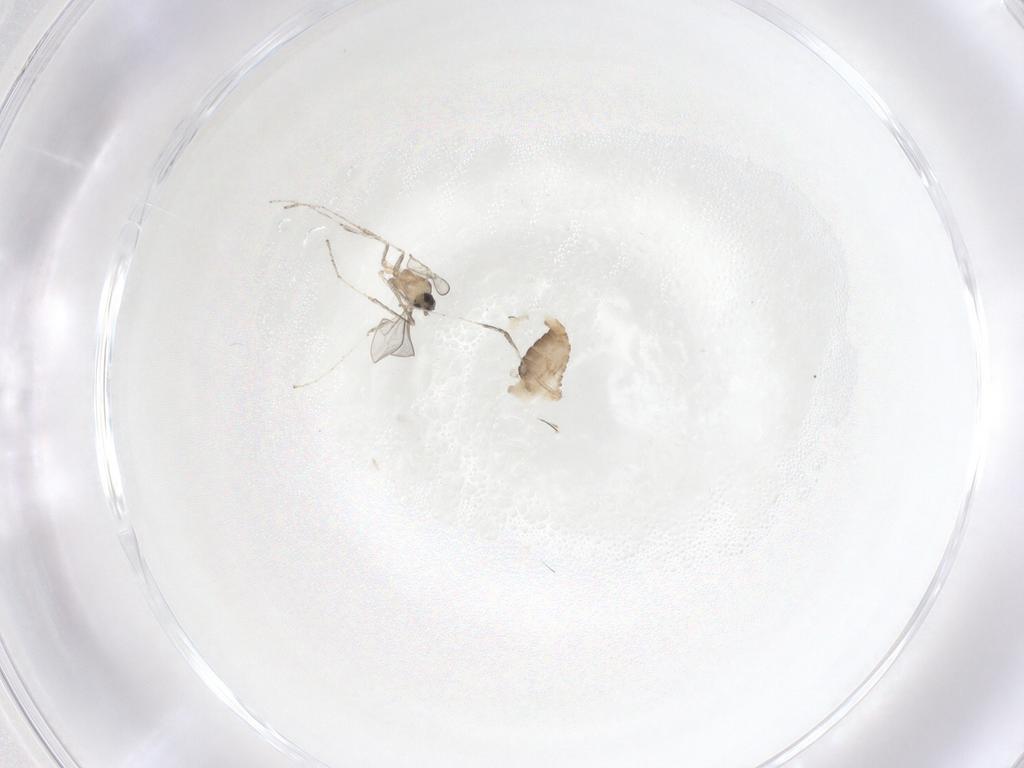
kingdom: Animalia
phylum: Arthropoda
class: Insecta
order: Diptera
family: Cecidomyiidae
